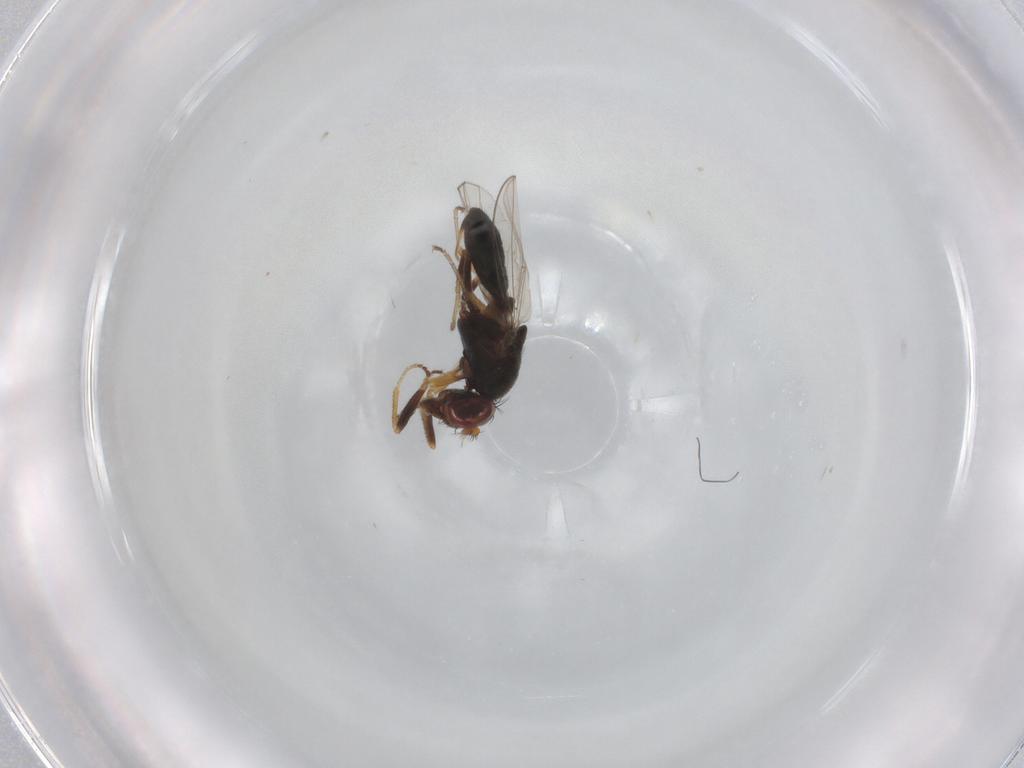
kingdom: Animalia
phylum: Arthropoda
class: Insecta
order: Diptera
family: Ephydridae
